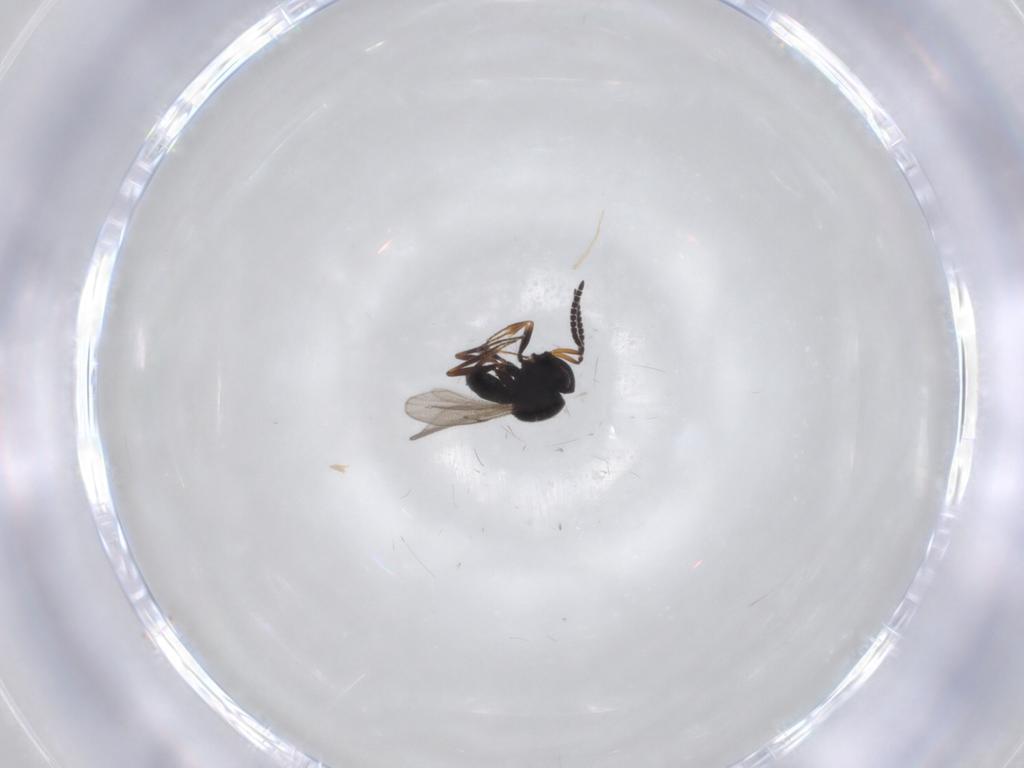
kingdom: Animalia
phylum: Arthropoda
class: Insecta
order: Hymenoptera
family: Scelionidae
